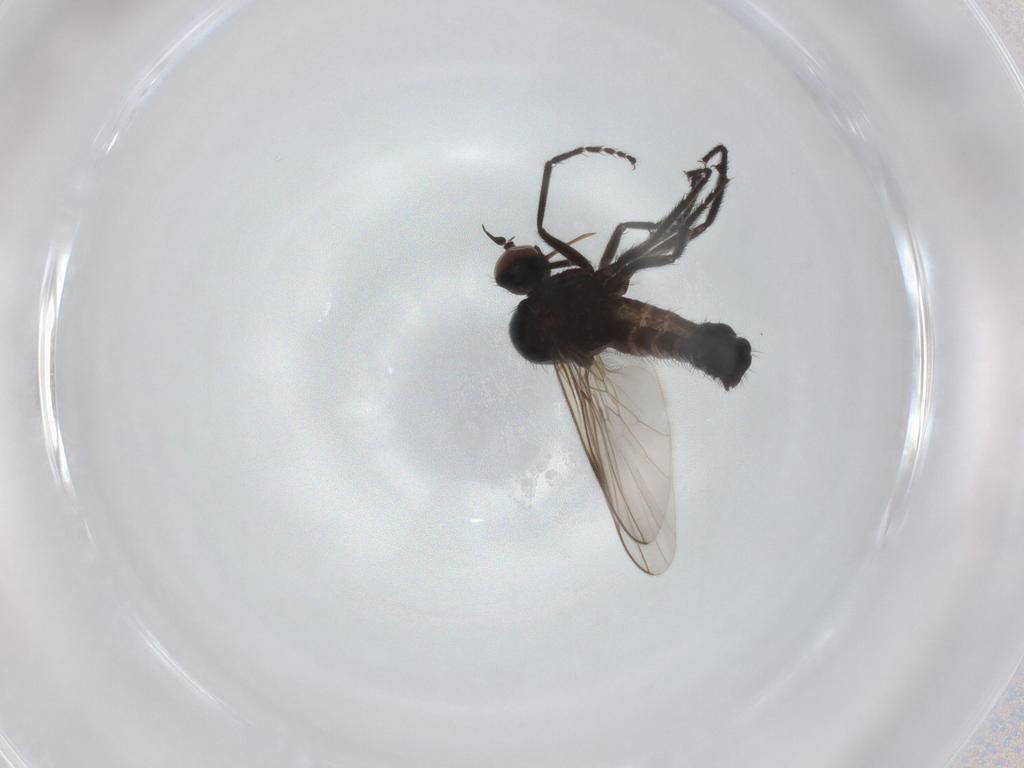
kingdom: Animalia
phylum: Arthropoda
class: Insecta
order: Diptera
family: Empididae
